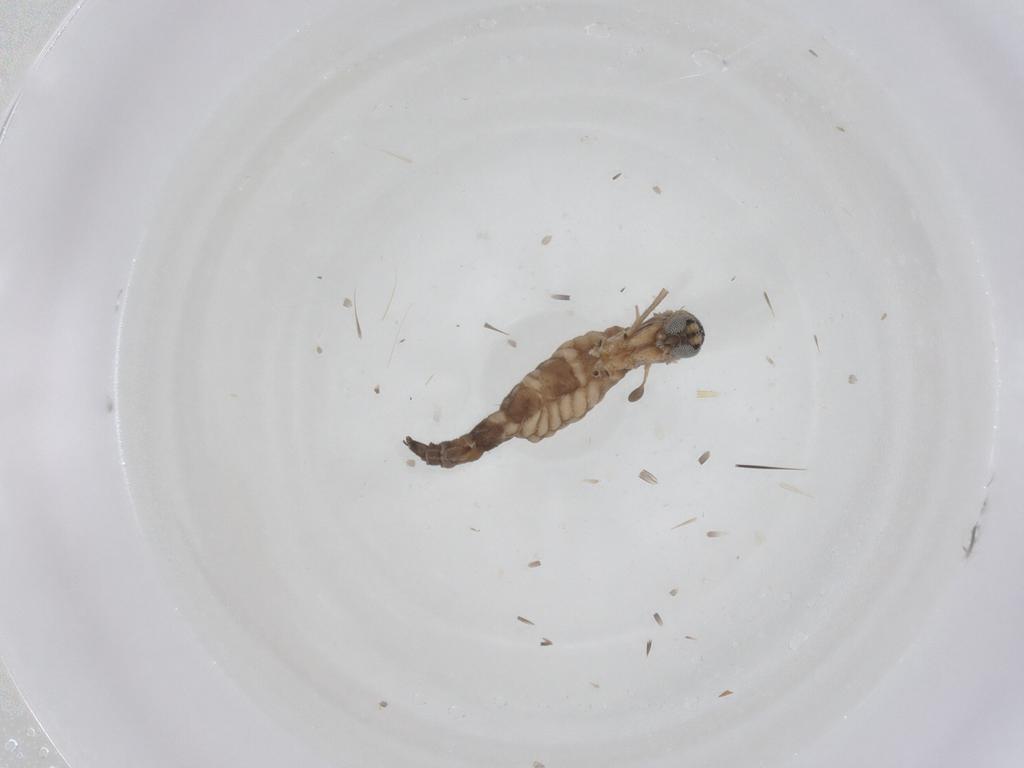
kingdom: Animalia
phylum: Arthropoda
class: Insecta
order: Diptera
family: Sciaridae
